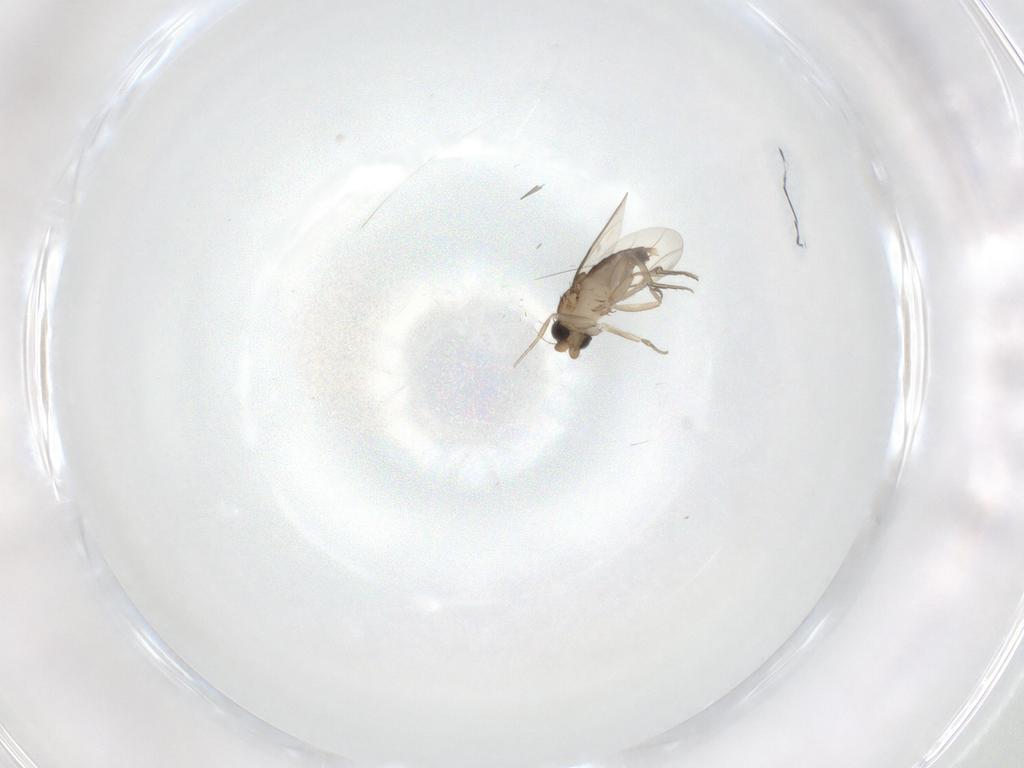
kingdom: Animalia
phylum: Arthropoda
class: Insecta
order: Diptera
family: Phoridae
